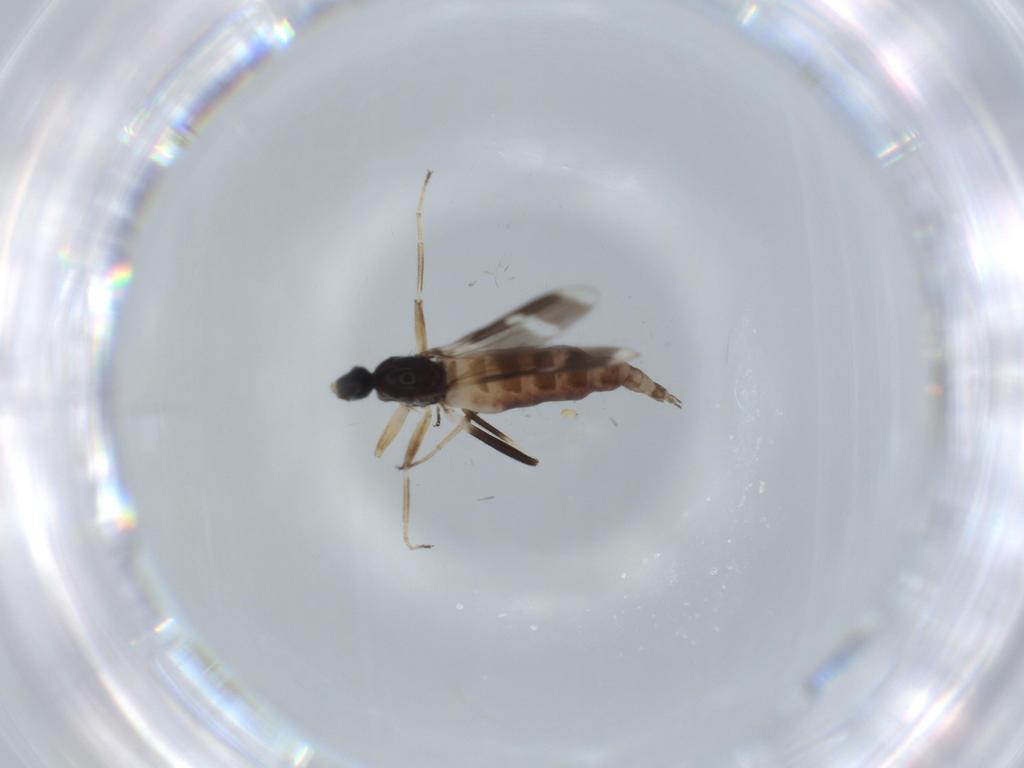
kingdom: Animalia
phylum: Arthropoda
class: Insecta
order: Diptera
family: Hybotidae
